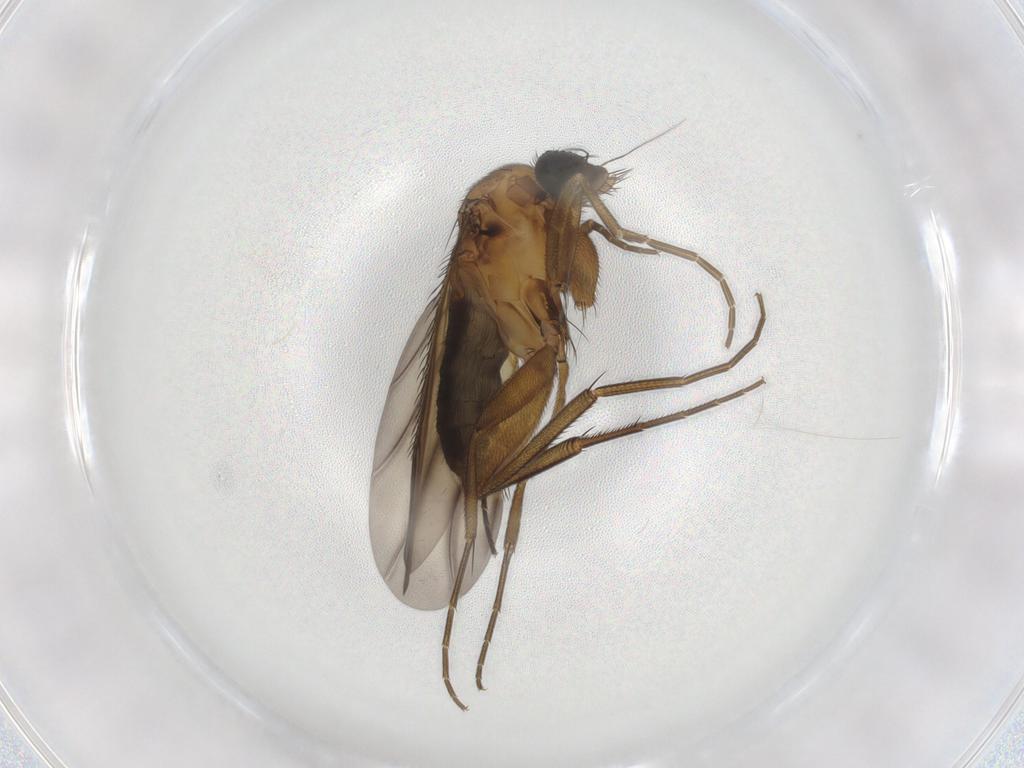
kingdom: Animalia
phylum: Arthropoda
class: Insecta
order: Diptera
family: Phoridae
